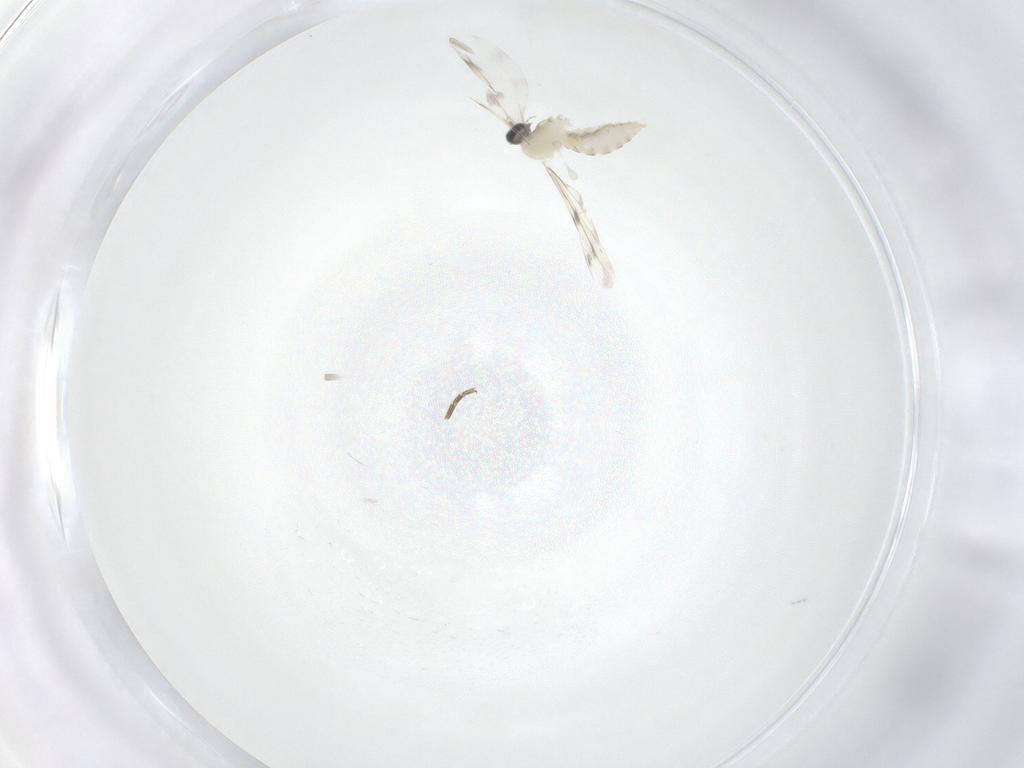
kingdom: Animalia
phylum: Arthropoda
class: Insecta
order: Diptera
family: Phoridae
